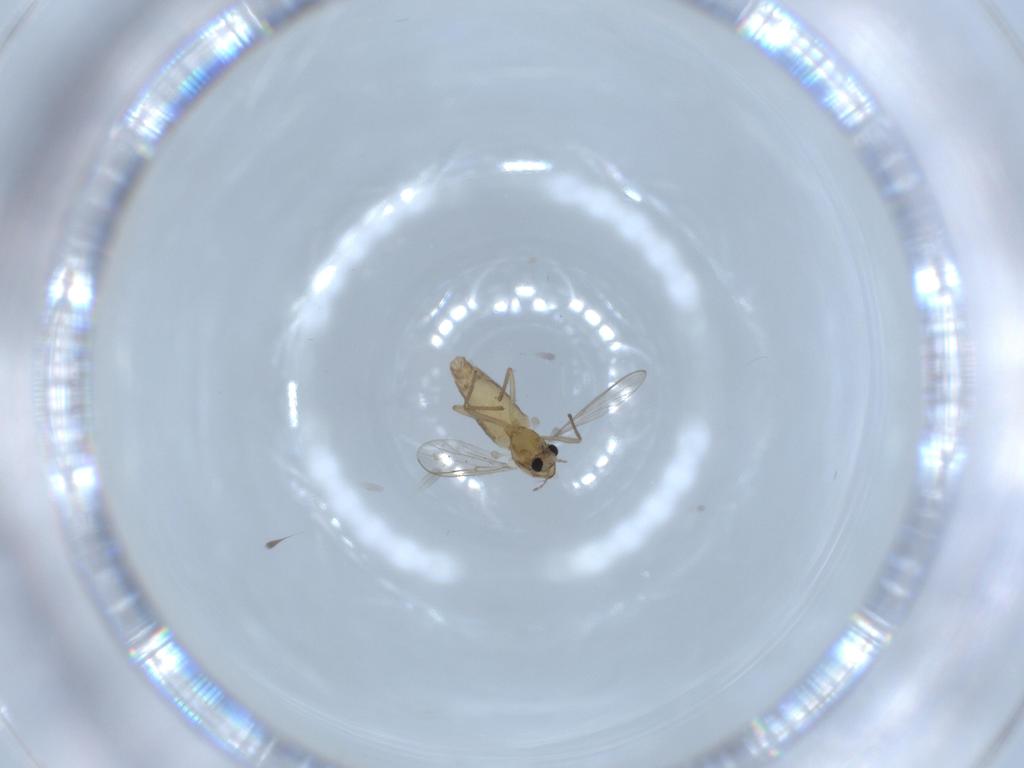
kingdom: Animalia
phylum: Arthropoda
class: Insecta
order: Diptera
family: Chironomidae
